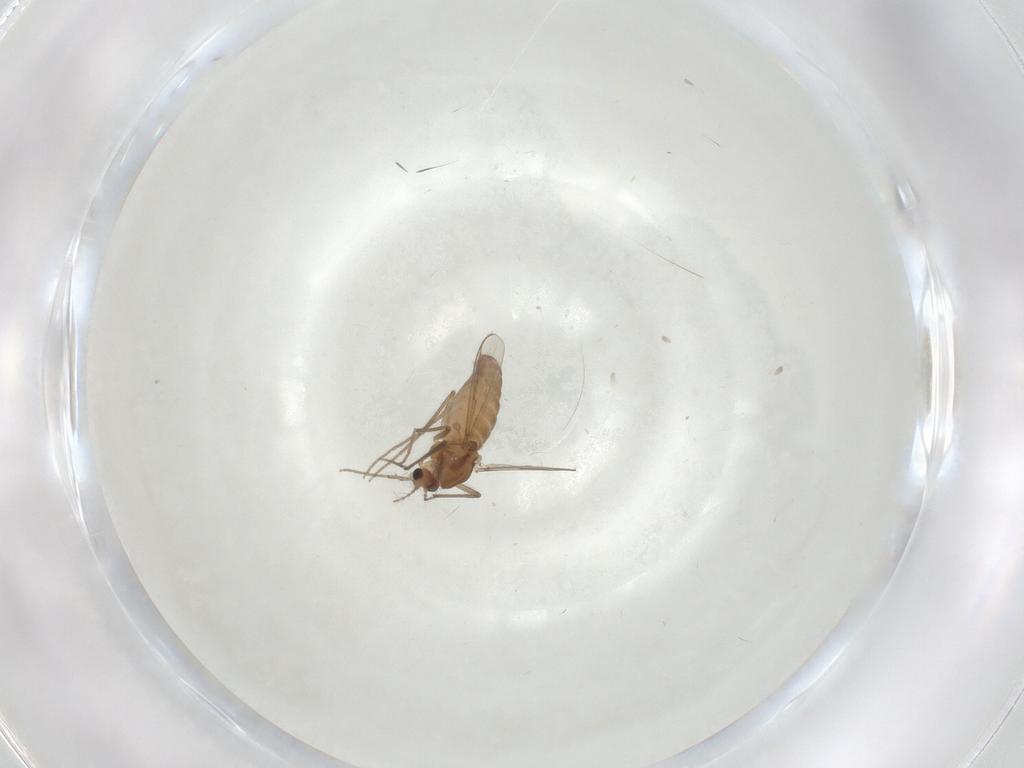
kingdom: Animalia
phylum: Arthropoda
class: Insecta
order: Diptera
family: Chironomidae
